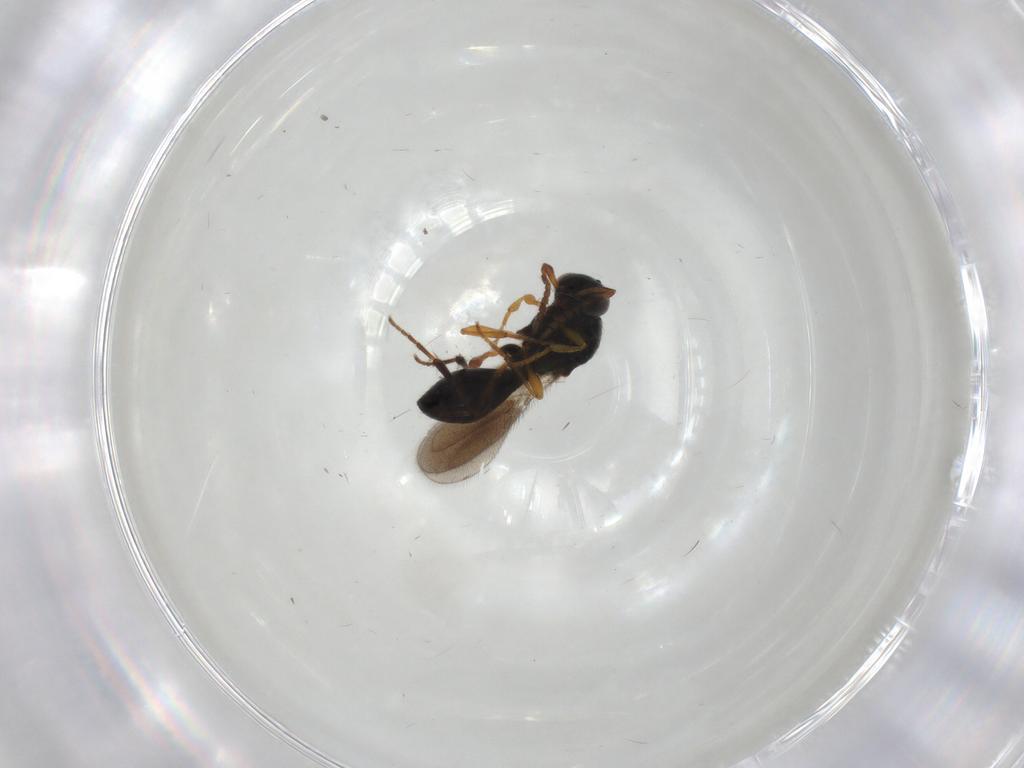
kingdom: Animalia
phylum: Arthropoda
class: Insecta
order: Hymenoptera
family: Platygastridae
